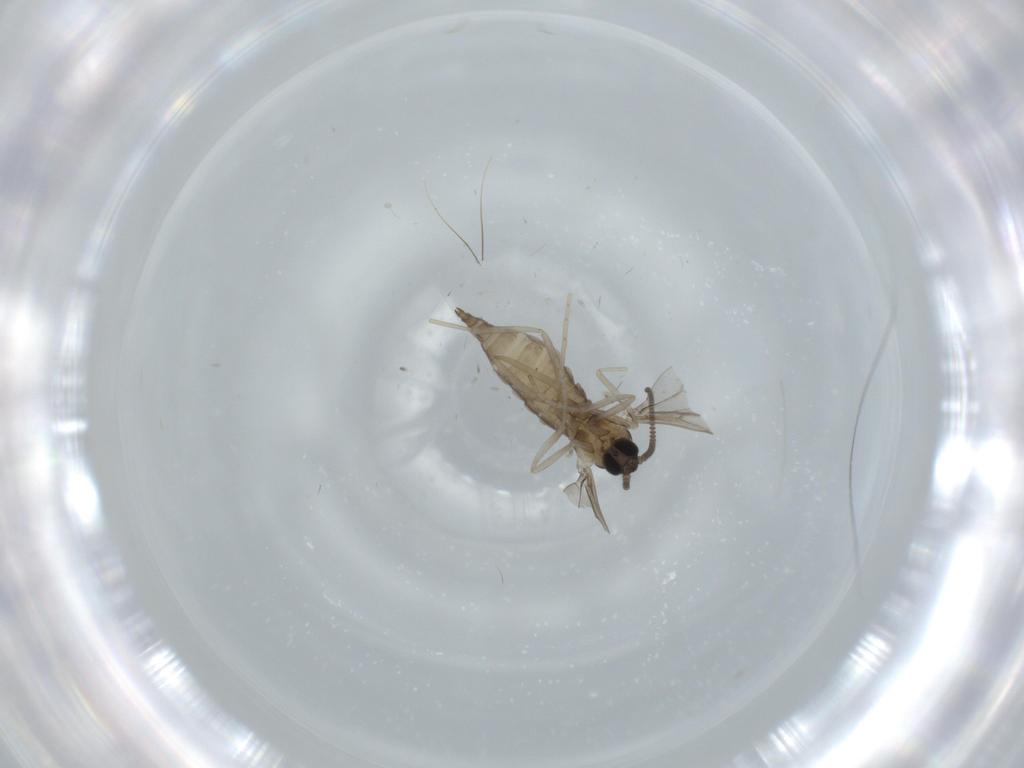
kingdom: Animalia
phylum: Arthropoda
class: Insecta
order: Diptera
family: Cecidomyiidae
